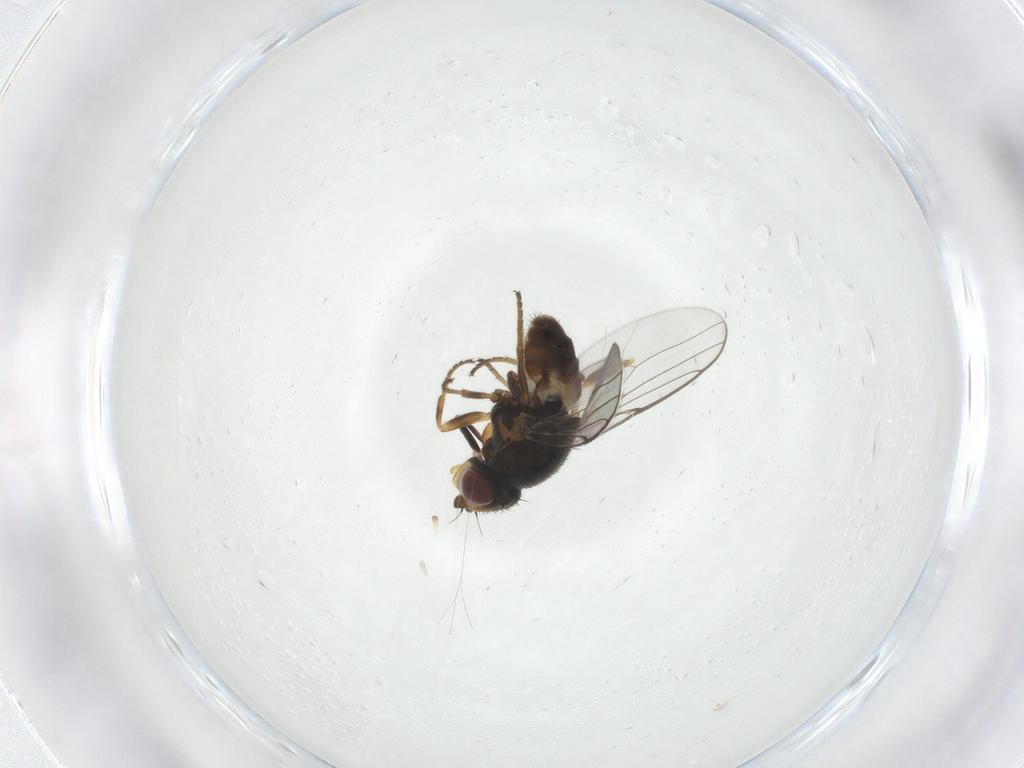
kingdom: Animalia
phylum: Arthropoda
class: Insecta
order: Diptera
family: Chloropidae
